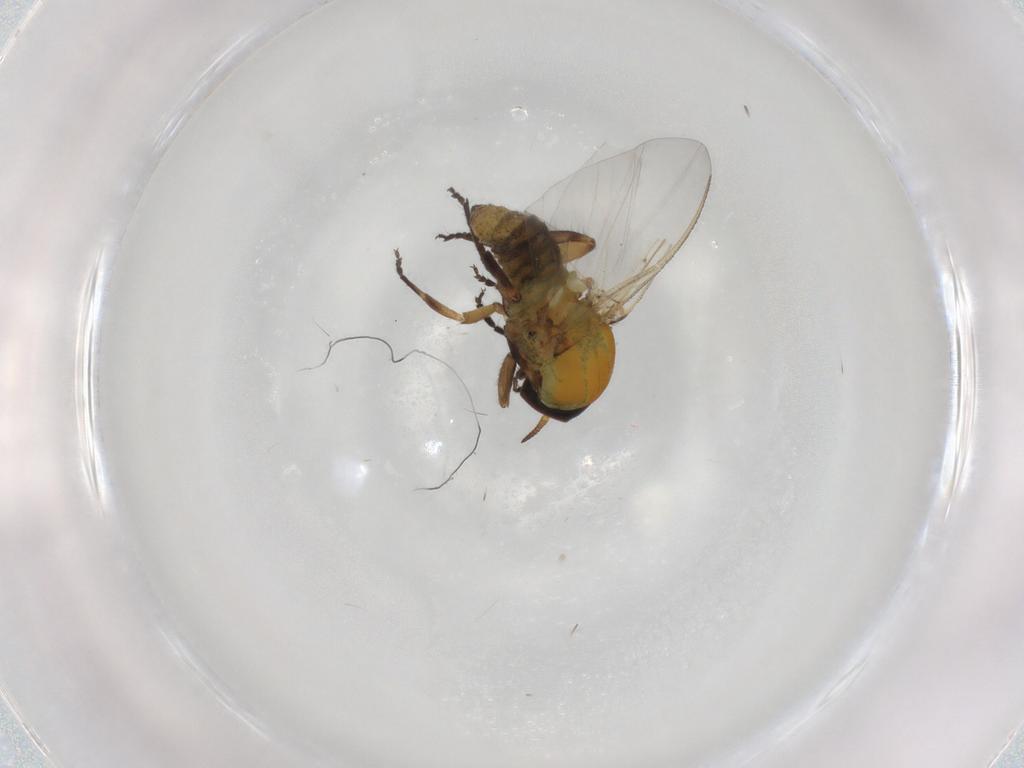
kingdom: Animalia
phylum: Arthropoda
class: Insecta
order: Diptera
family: Simuliidae
